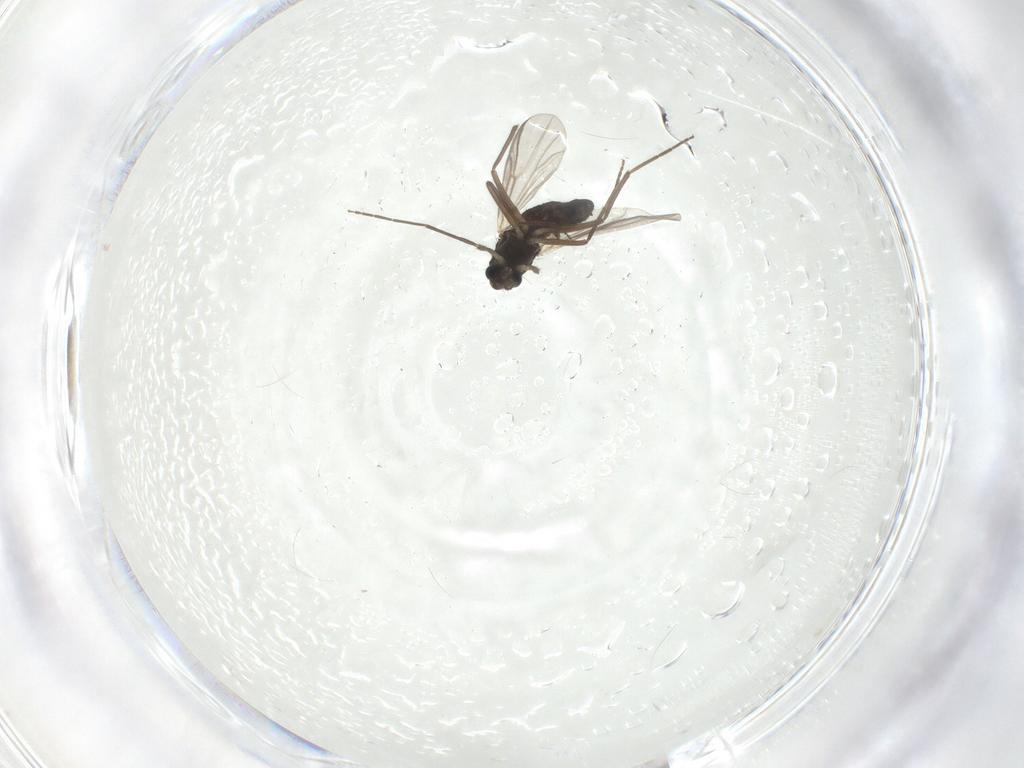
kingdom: Animalia
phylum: Arthropoda
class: Insecta
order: Diptera
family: Chironomidae
